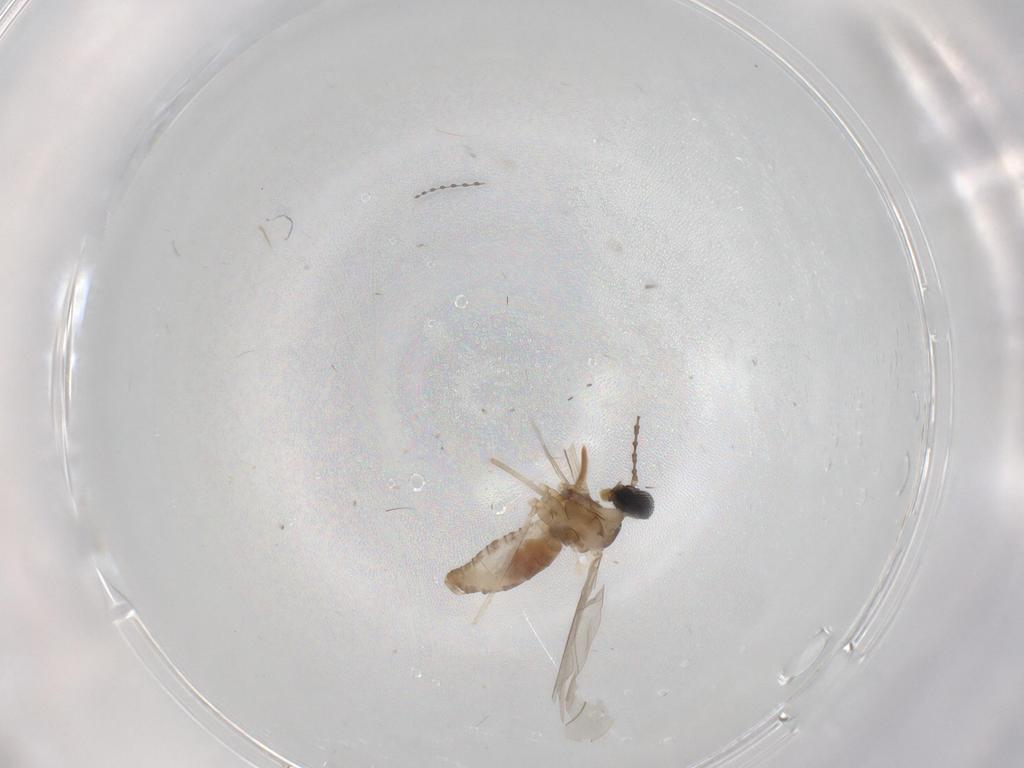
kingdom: Animalia
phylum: Arthropoda
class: Insecta
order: Diptera
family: Cecidomyiidae
